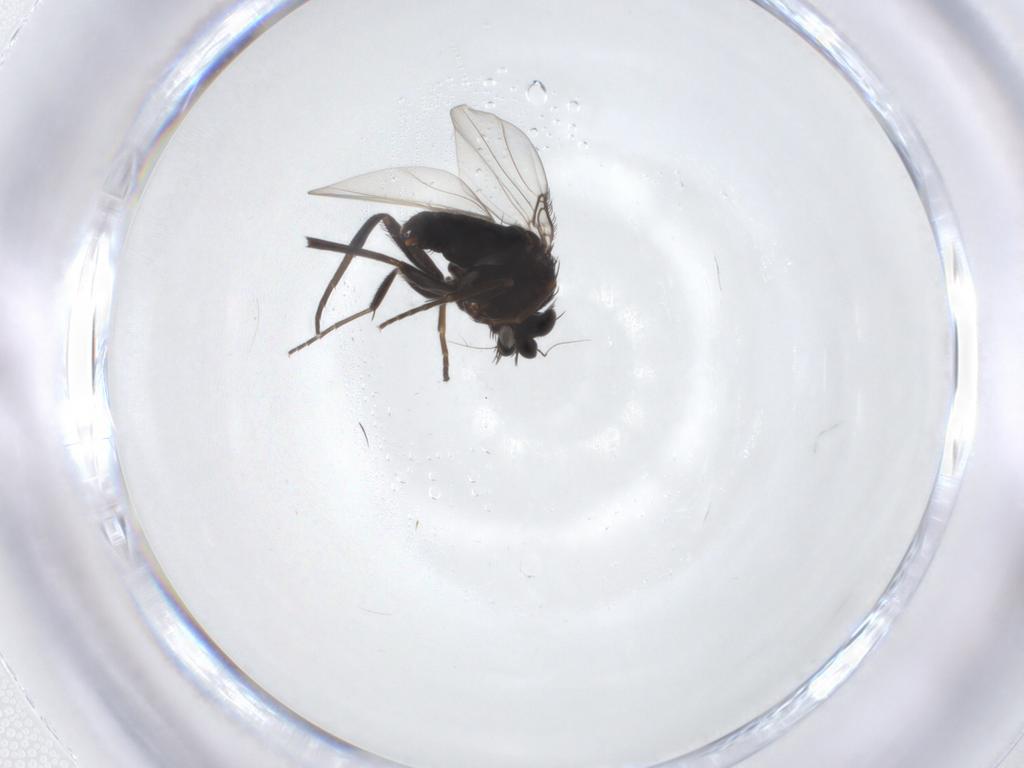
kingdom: Animalia
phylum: Arthropoda
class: Insecta
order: Diptera
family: Phoridae
